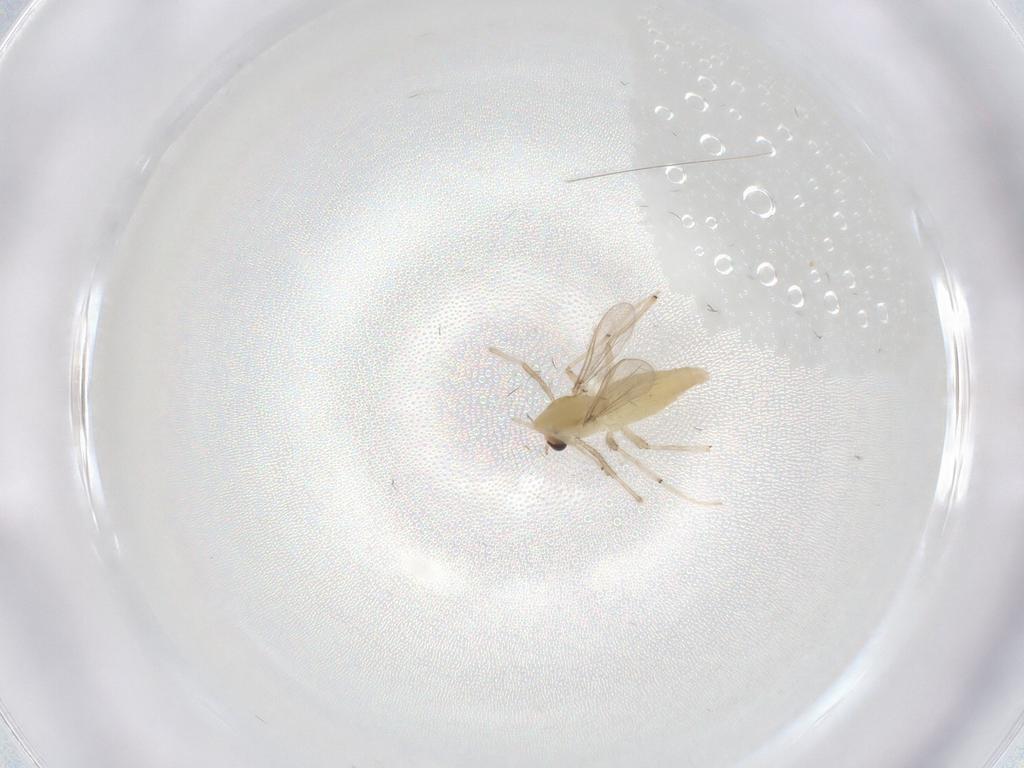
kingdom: Animalia
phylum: Arthropoda
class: Insecta
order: Diptera
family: Chironomidae
